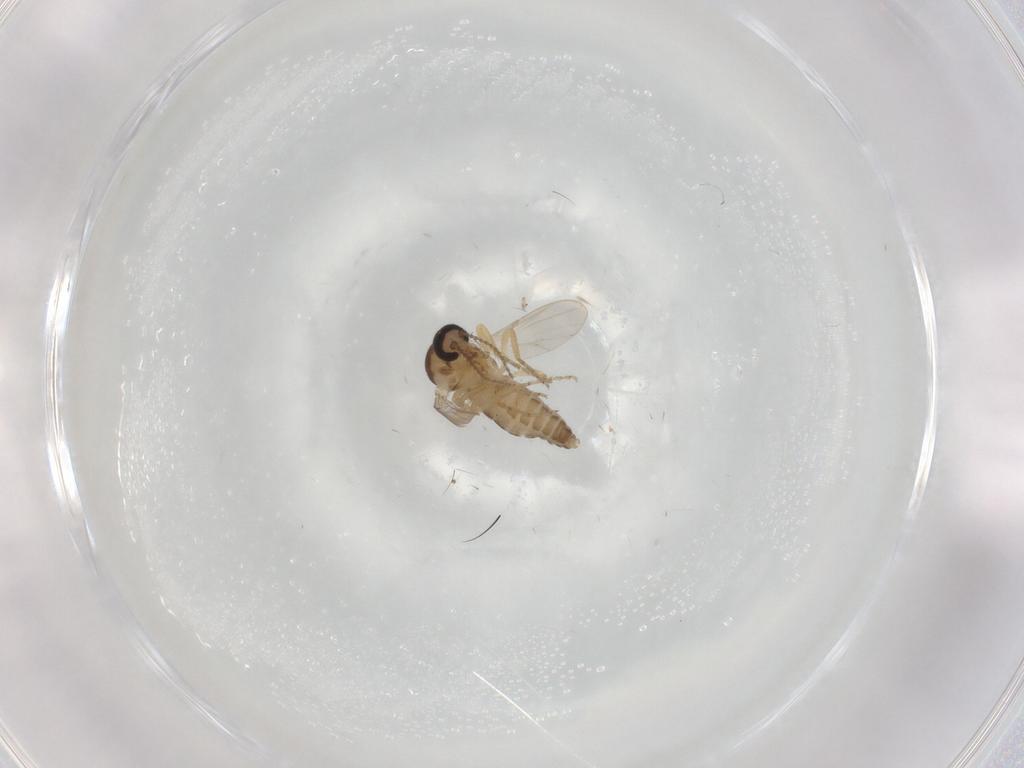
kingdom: Animalia
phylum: Arthropoda
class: Insecta
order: Diptera
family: Ceratopogonidae
